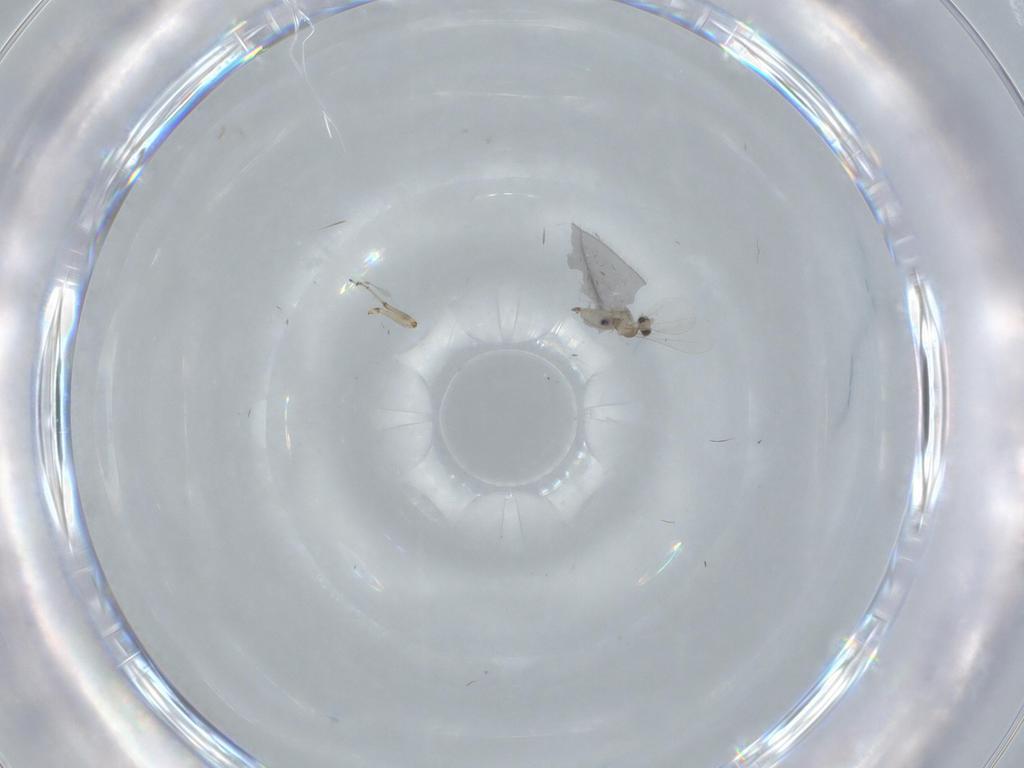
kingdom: Animalia
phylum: Arthropoda
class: Insecta
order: Diptera
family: Cecidomyiidae
